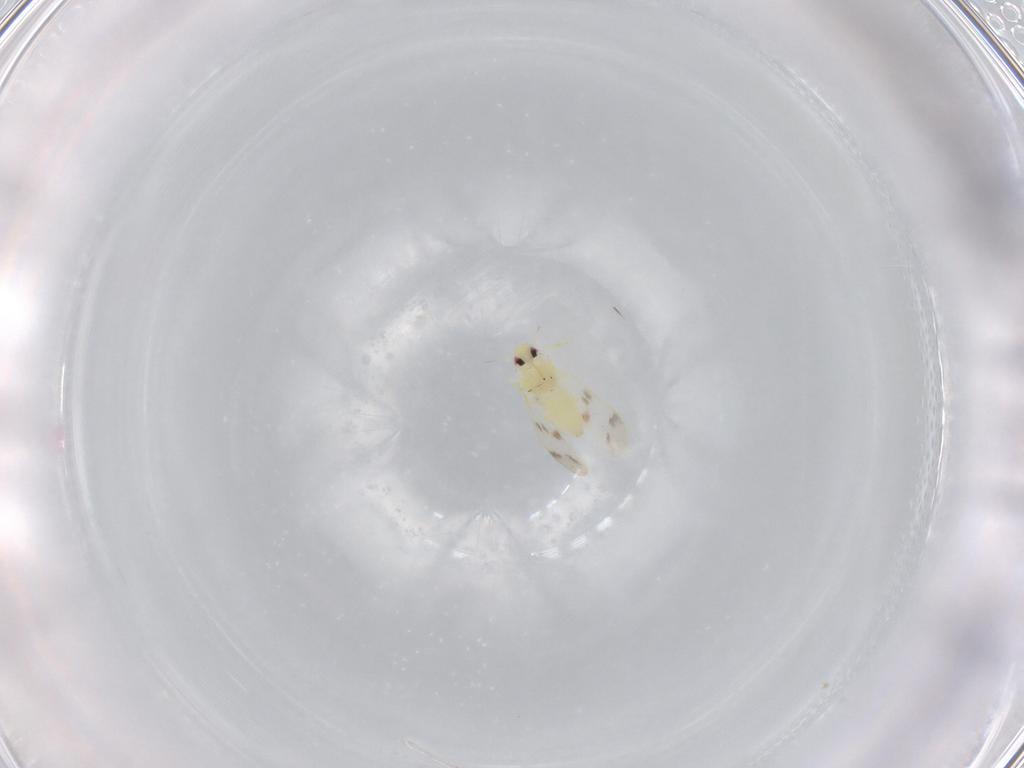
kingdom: Animalia
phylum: Arthropoda
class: Insecta
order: Hemiptera
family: Aleyrodidae
